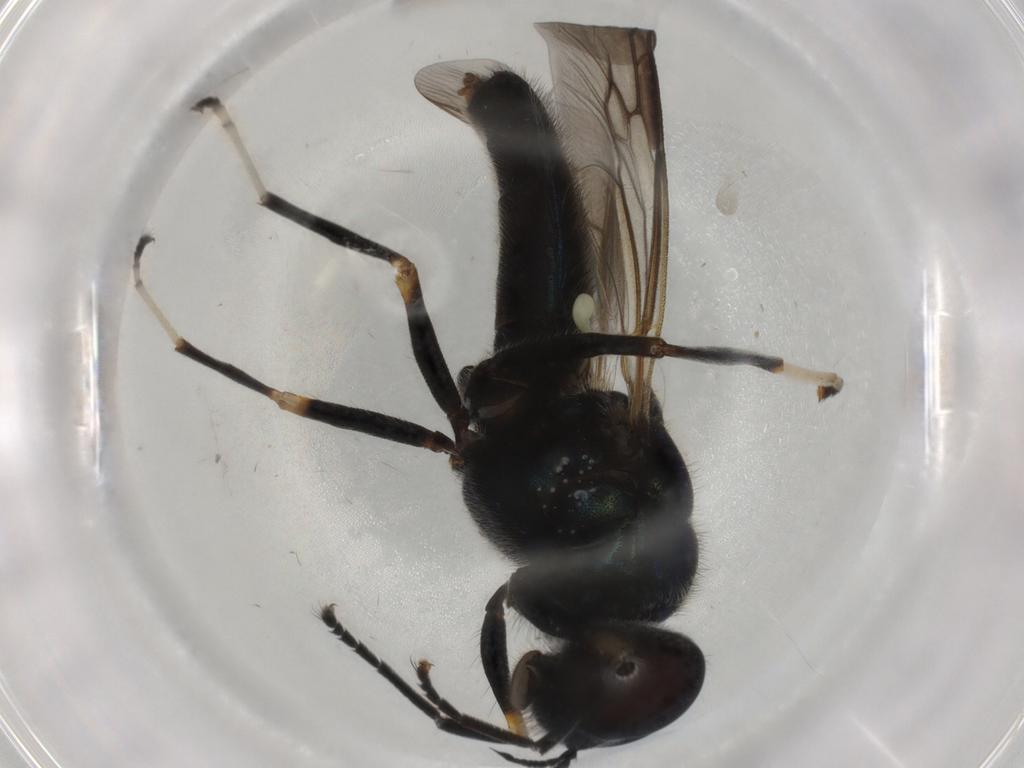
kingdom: Animalia
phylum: Arthropoda
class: Insecta
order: Diptera
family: Stratiomyidae
